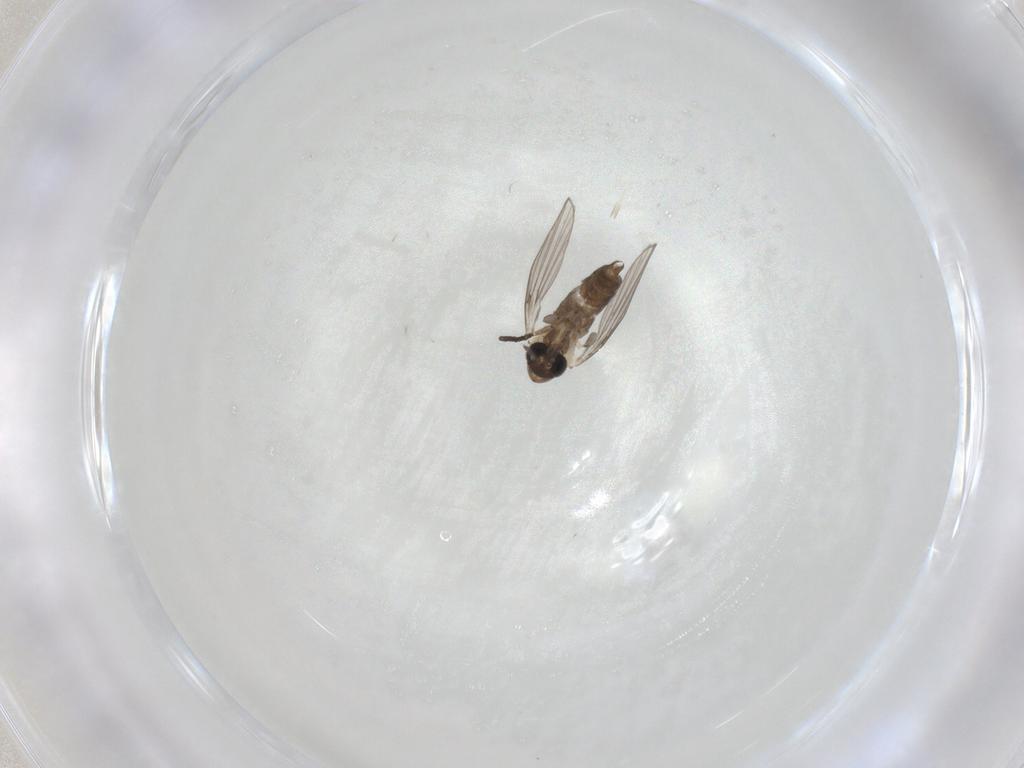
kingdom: Animalia
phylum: Arthropoda
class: Insecta
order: Diptera
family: Psychodidae
